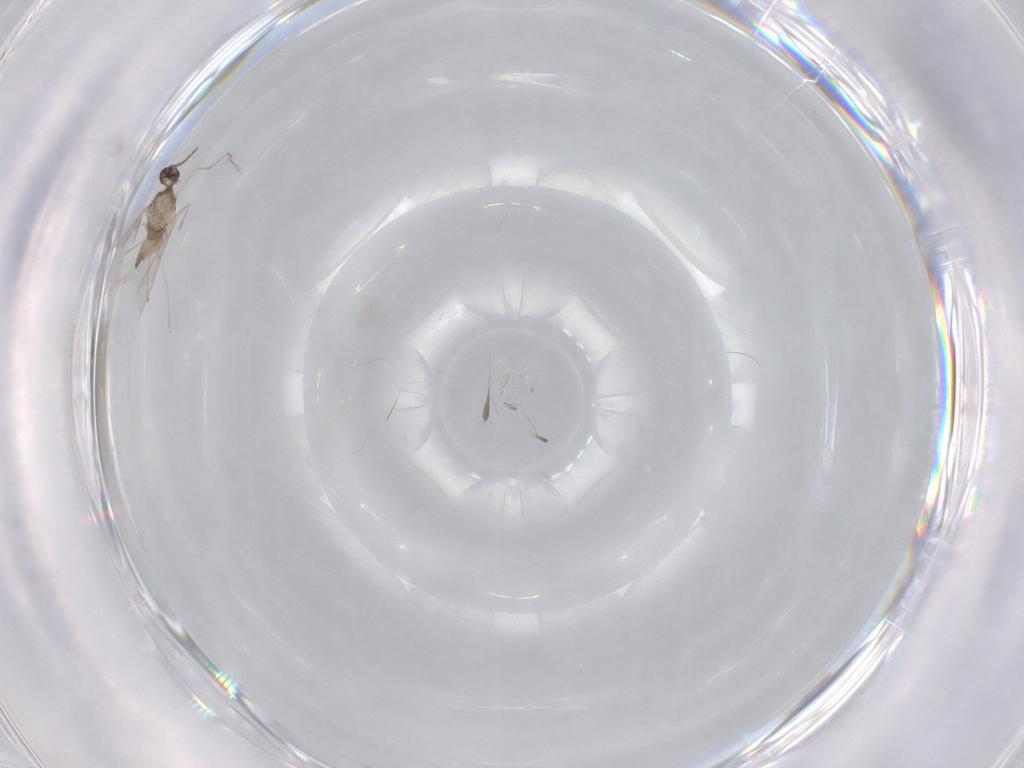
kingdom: Animalia
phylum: Arthropoda
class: Insecta
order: Diptera
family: Cecidomyiidae
